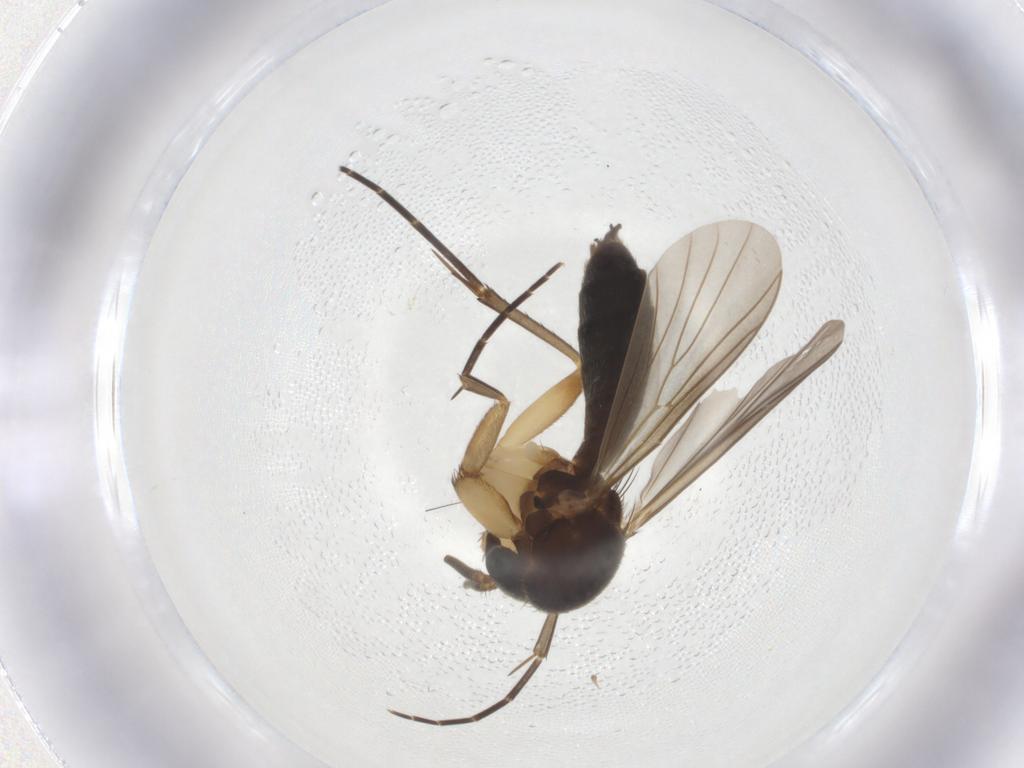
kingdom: Animalia
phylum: Arthropoda
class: Insecta
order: Diptera
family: Mycetophilidae
